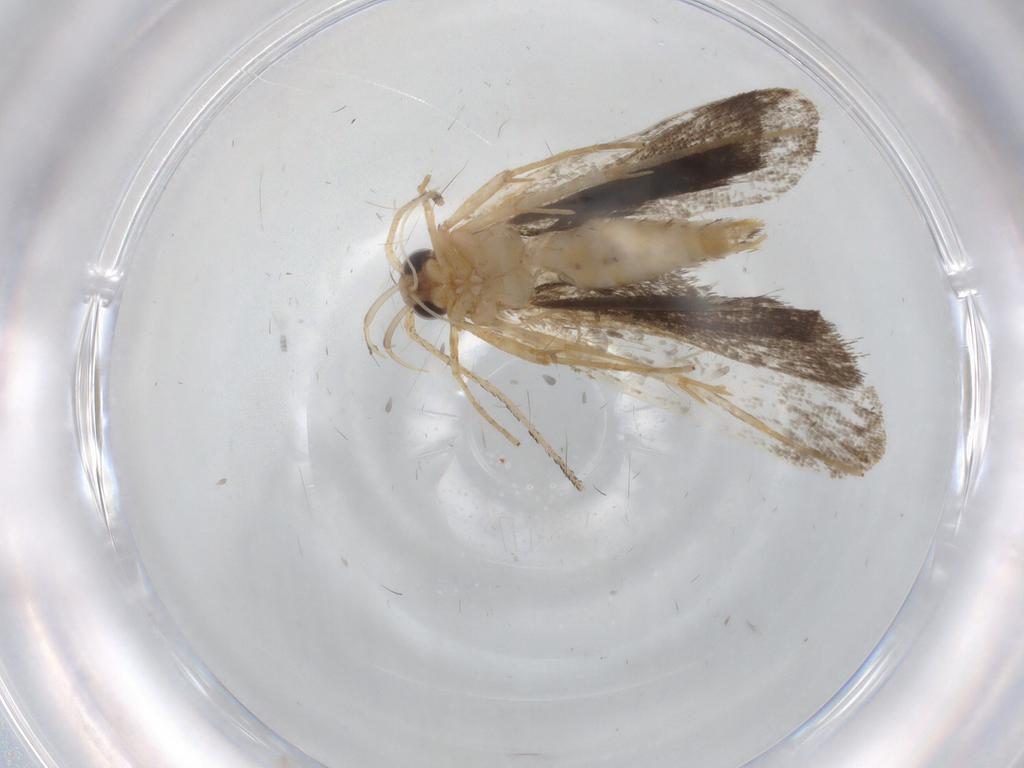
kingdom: Animalia
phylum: Arthropoda
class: Insecta
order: Lepidoptera
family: Cosmopterigidae
